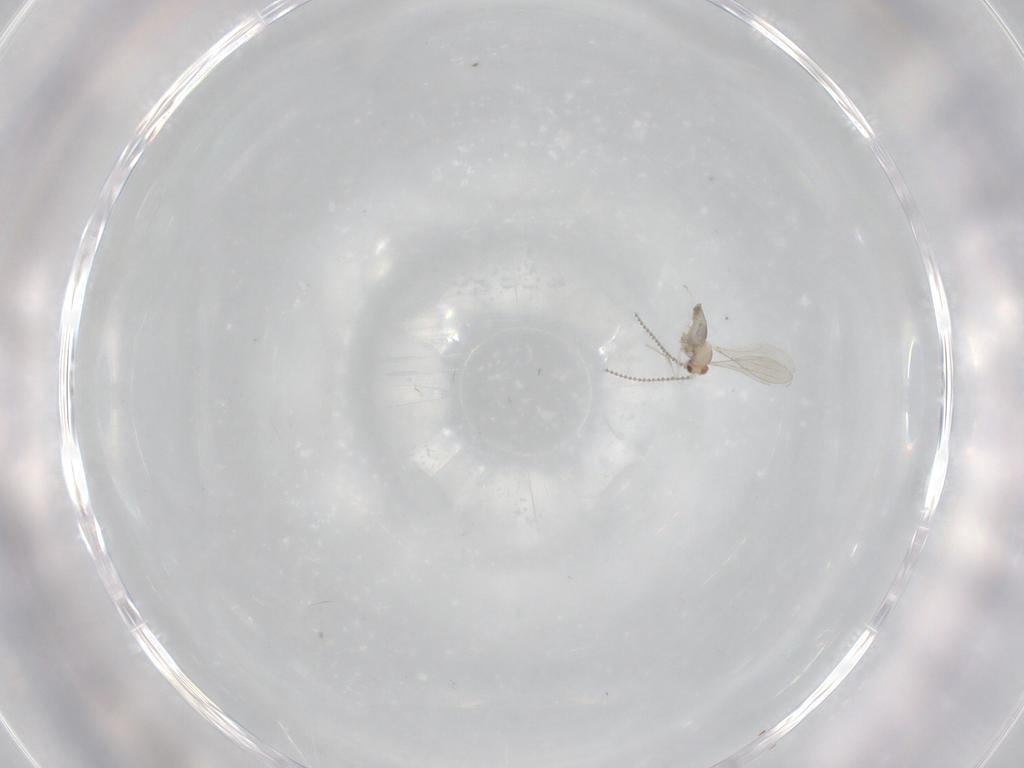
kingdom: Animalia
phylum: Arthropoda
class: Insecta
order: Diptera
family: Cecidomyiidae
